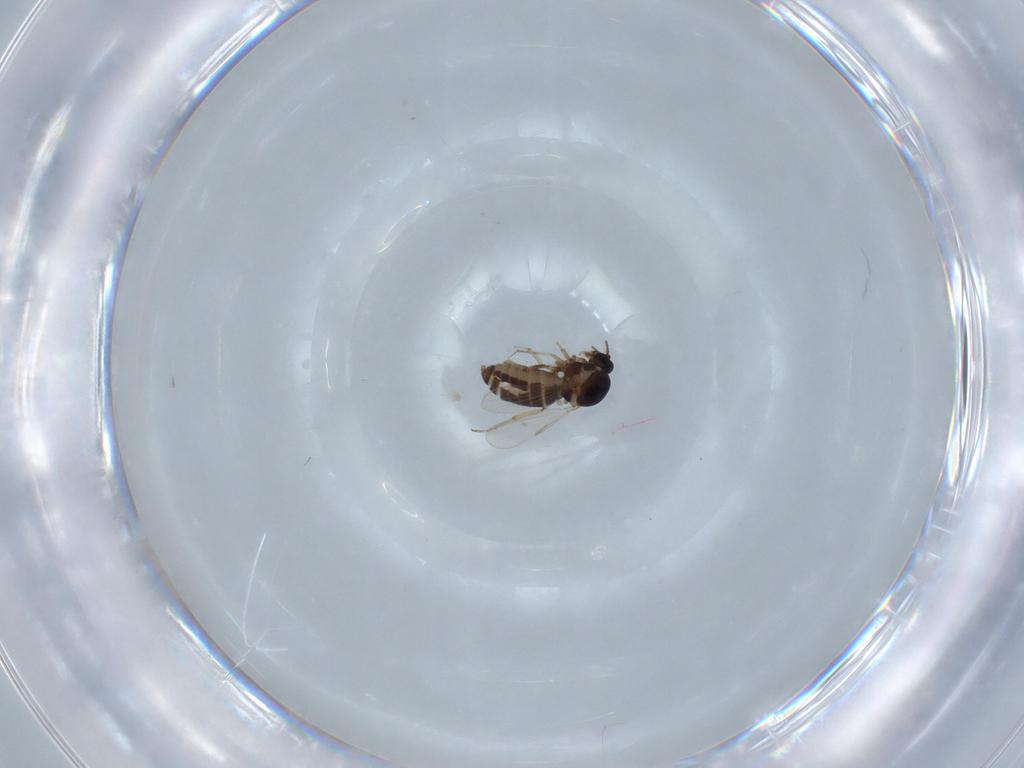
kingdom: Animalia
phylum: Arthropoda
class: Insecta
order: Diptera
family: Ceratopogonidae
